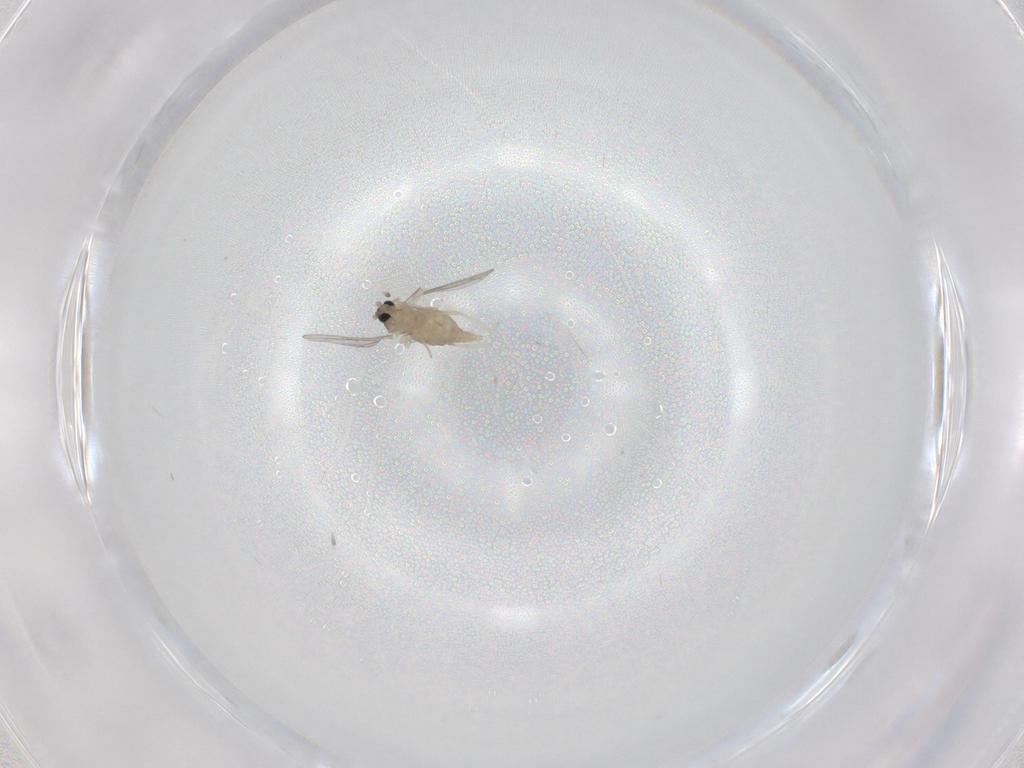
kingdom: Animalia
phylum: Arthropoda
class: Insecta
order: Diptera
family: Cecidomyiidae
